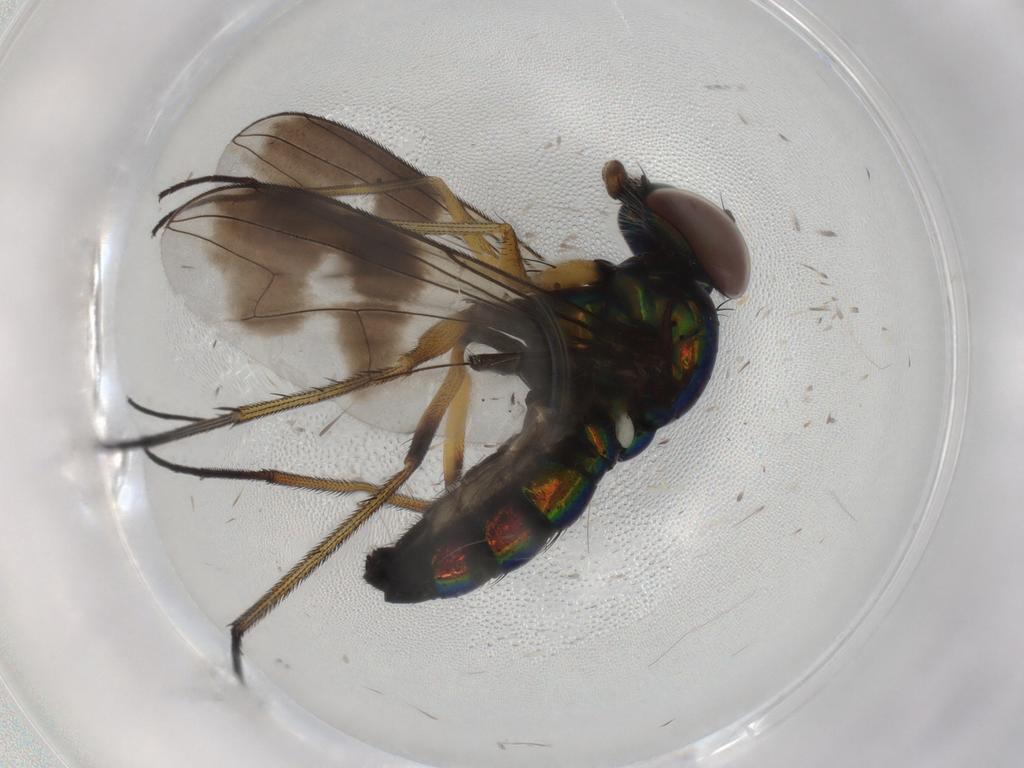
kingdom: Animalia
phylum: Arthropoda
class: Insecta
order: Diptera
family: Dolichopodidae
